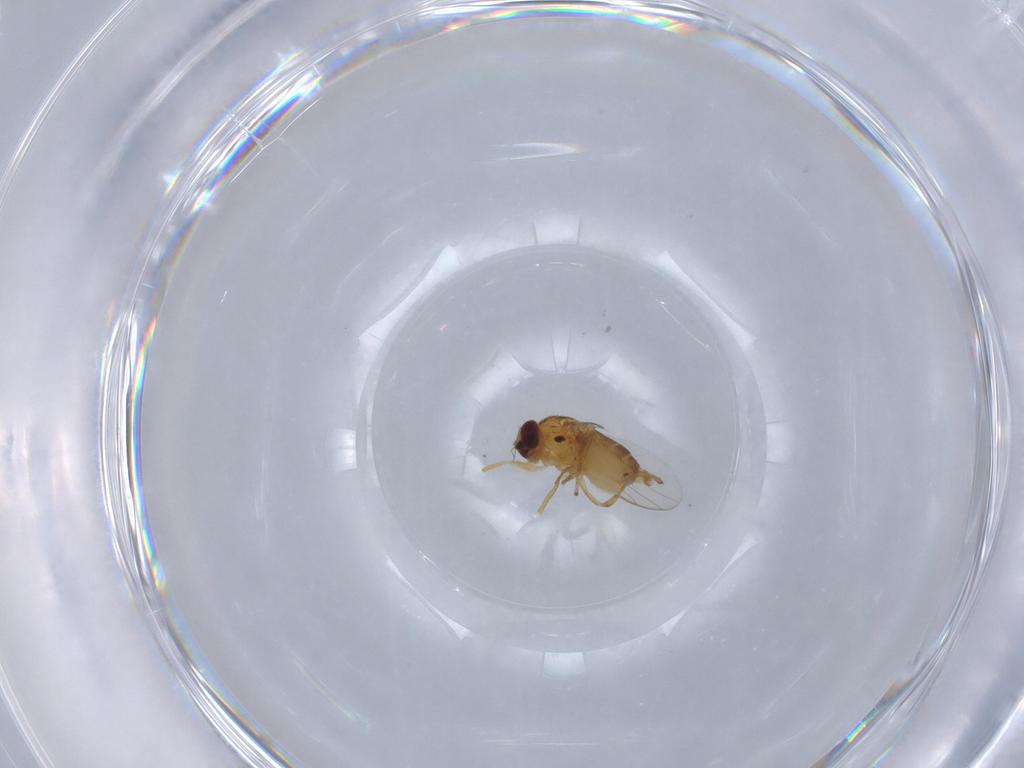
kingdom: Animalia
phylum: Arthropoda
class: Insecta
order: Diptera
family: Chloropidae
